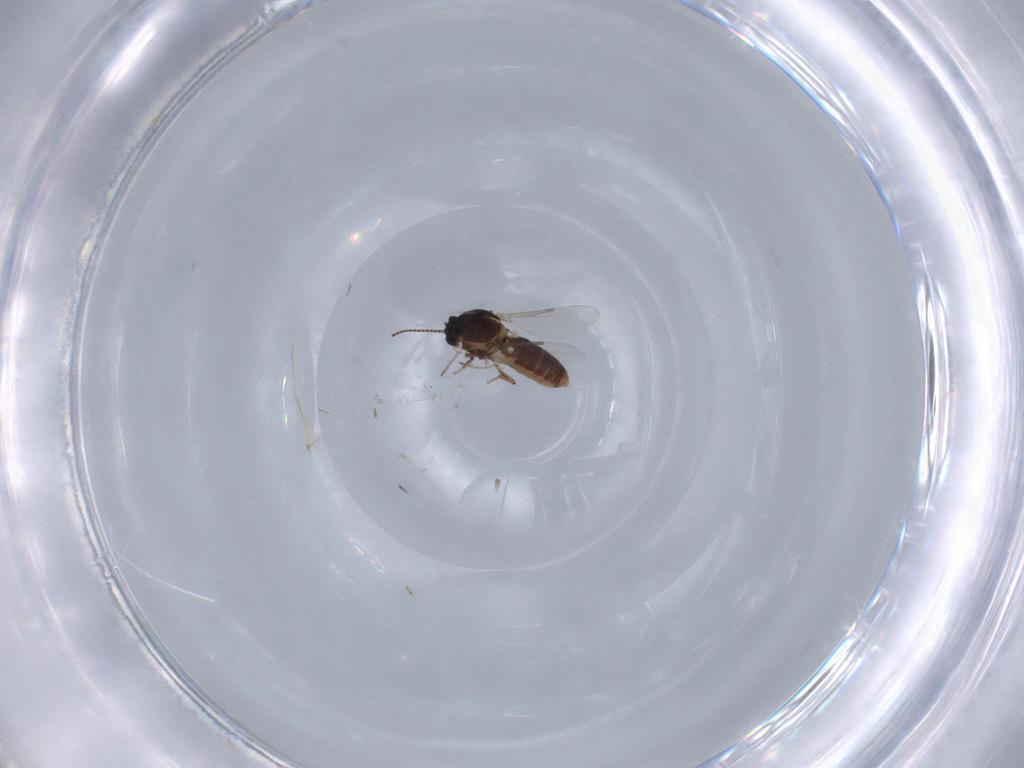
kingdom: Animalia
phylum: Arthropoda
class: Insecta
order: Diptera
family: Ceratopogonidae
